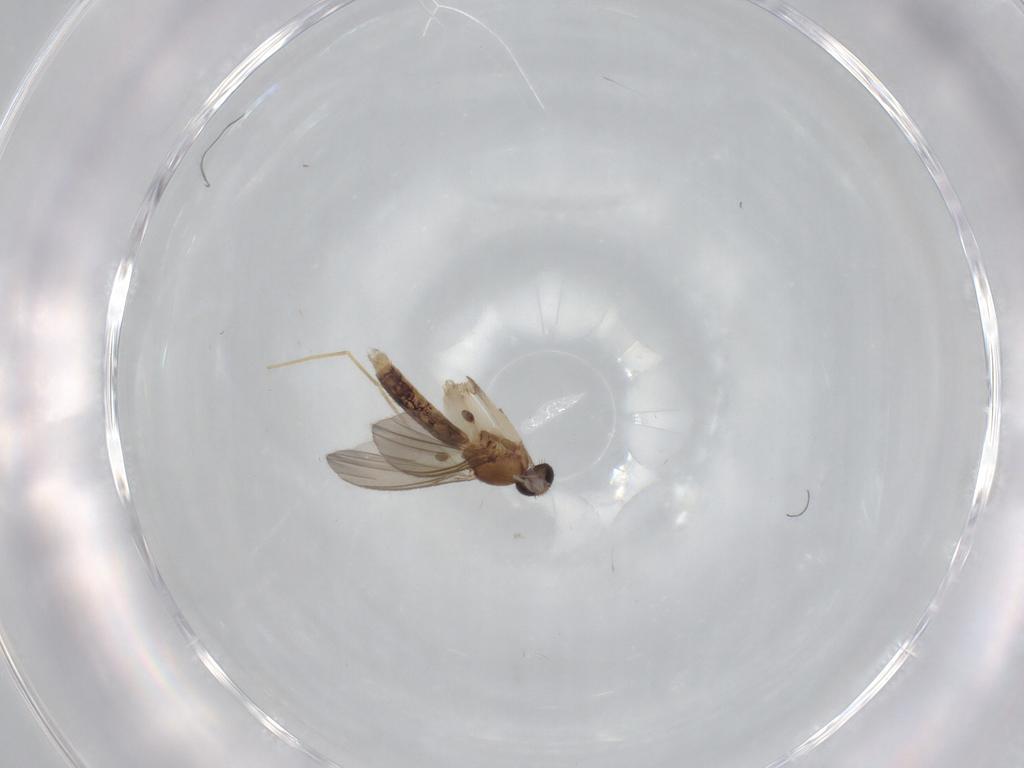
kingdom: Animalia
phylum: Arthropoda
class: Insecta
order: Diptera
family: Mycetophilidae
